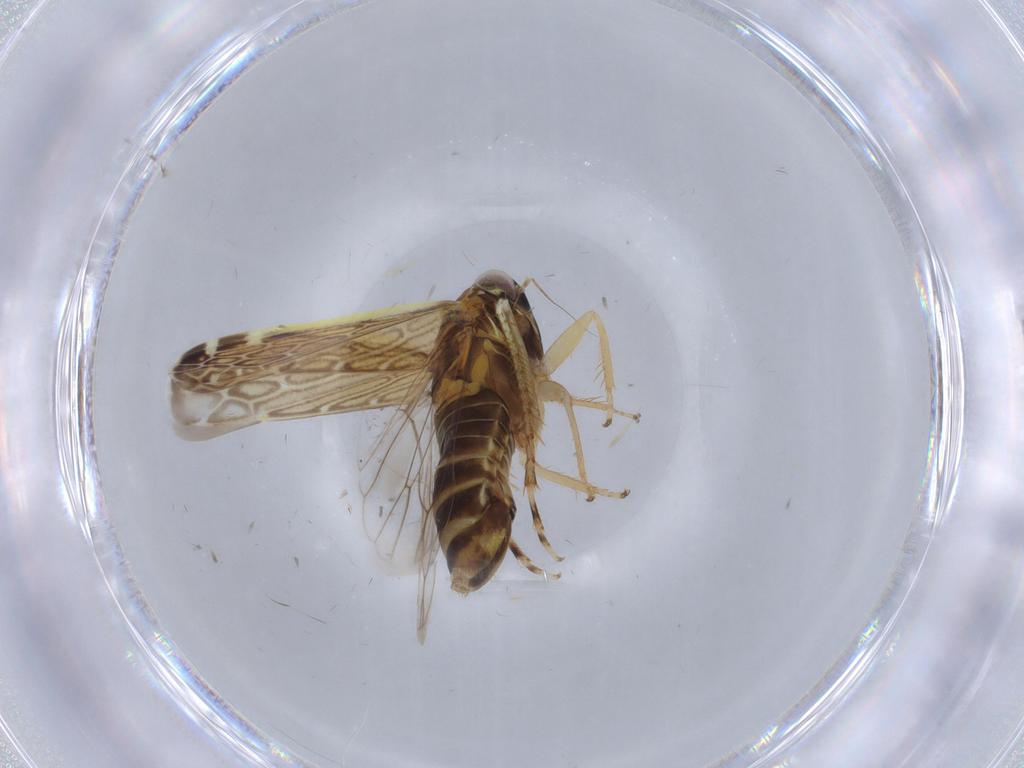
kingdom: Animalia
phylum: Arthropoda
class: Insecta
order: Hemiptera
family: Cicadellidae
